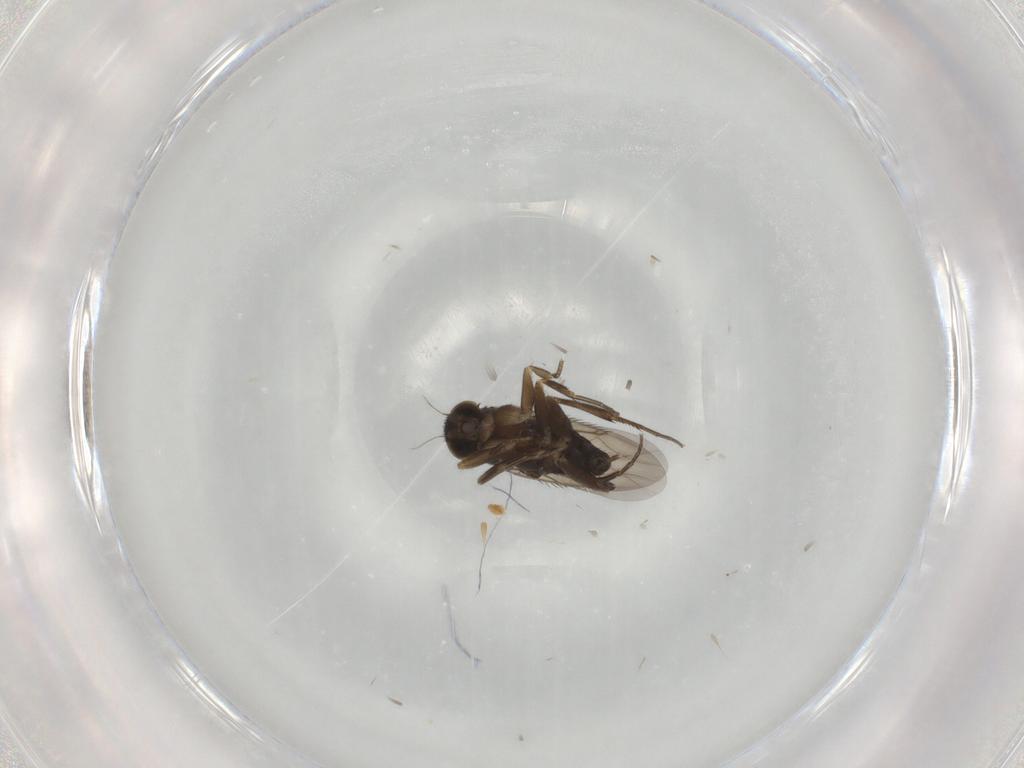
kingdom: Animalia
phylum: Arthropoda
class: Insecta
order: Diptera
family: Phoridae
